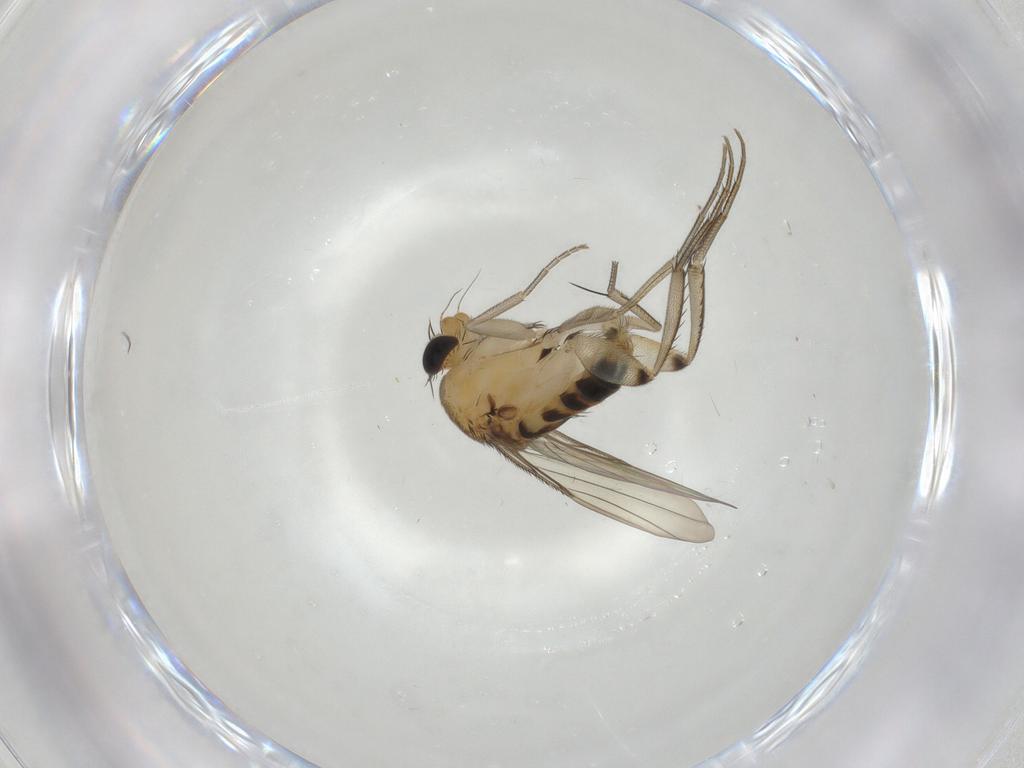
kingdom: Animalia
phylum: Arthropoda
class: Insecta
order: Diptera
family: Phoridae
